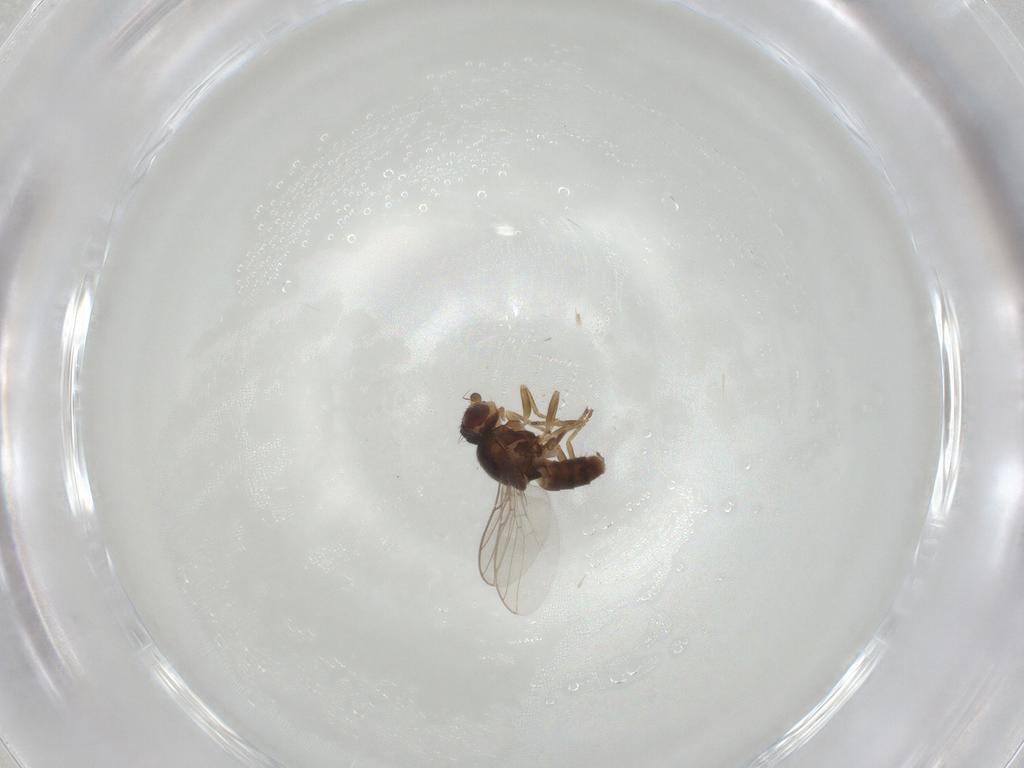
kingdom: Animalia
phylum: Arthropoda
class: Insecta
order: Diptera
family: Chloropidae
